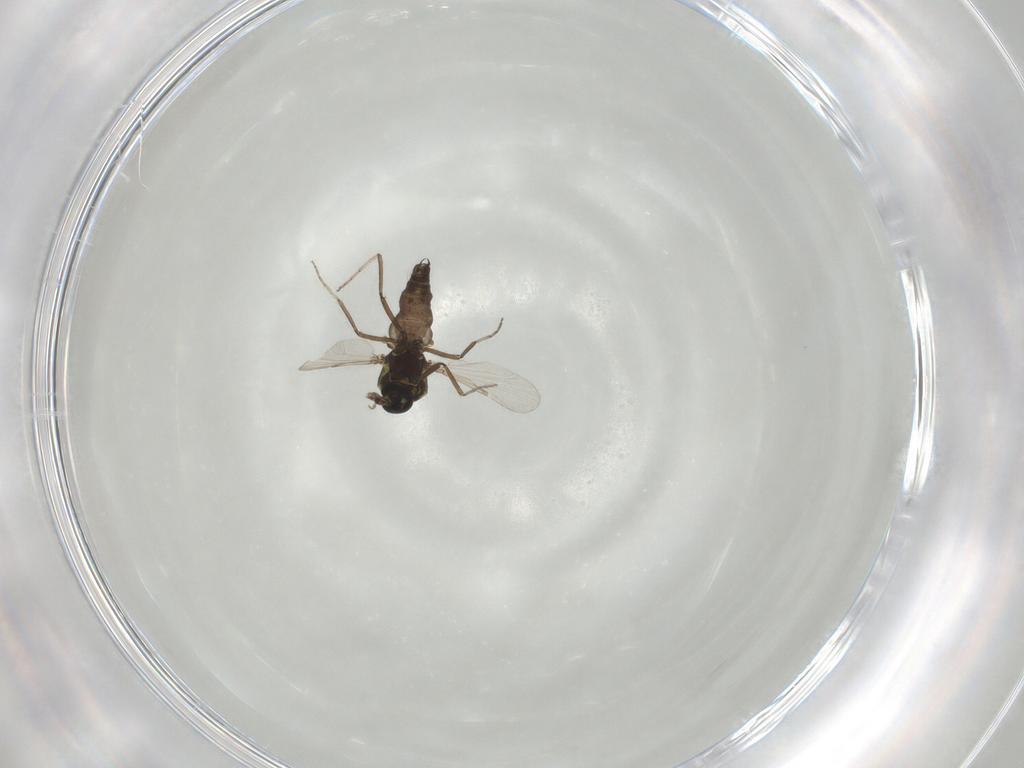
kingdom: Animalia
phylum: Arthropoda
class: Insecta
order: Diptera
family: Ceratopogonidae
